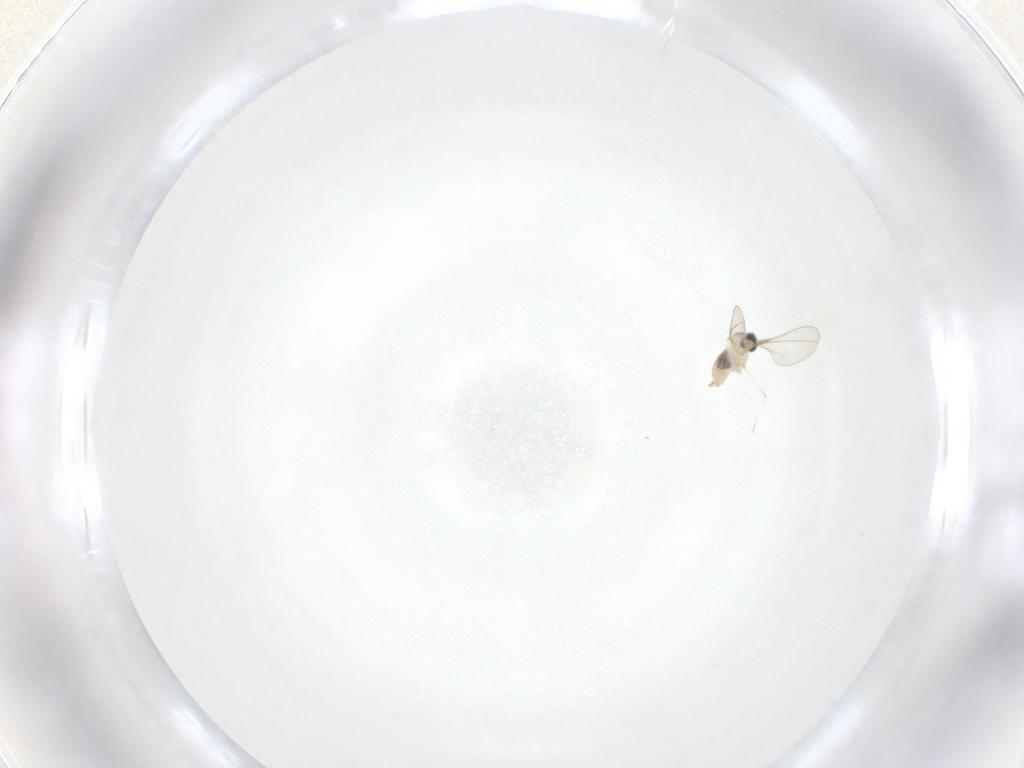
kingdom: Animalia
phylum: Arthropoda
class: Insecta
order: Diptera
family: Cecidomyiidae
